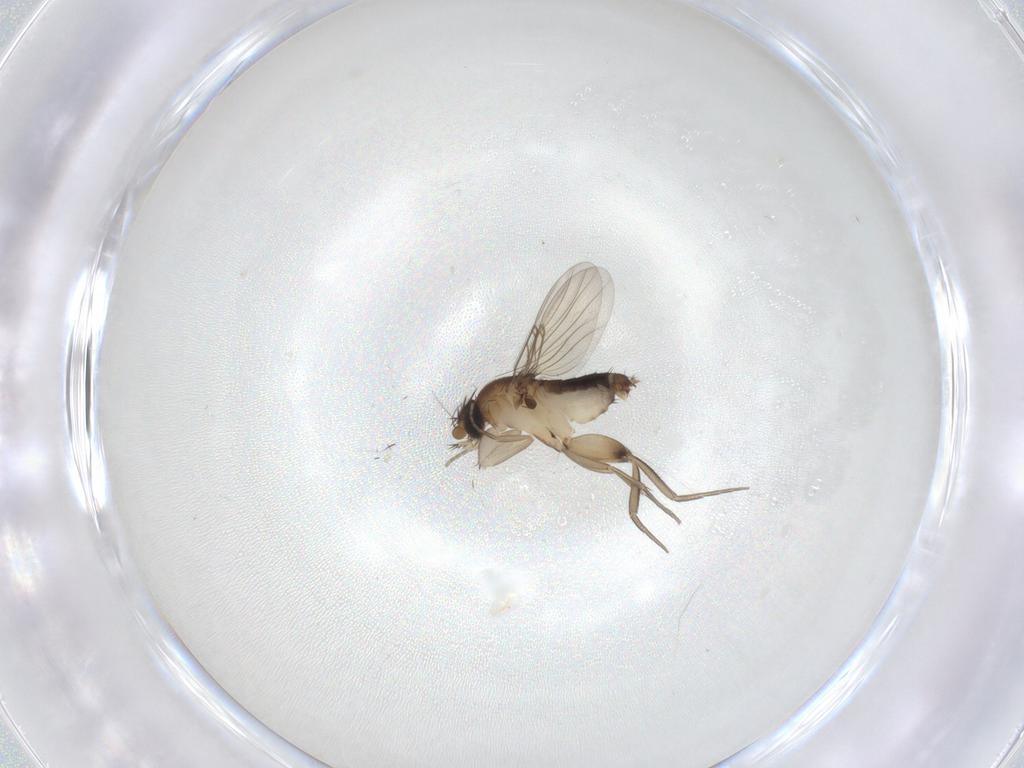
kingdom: Animalia
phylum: Arthropoda
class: Insecta
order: Diptera
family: Phoridae
